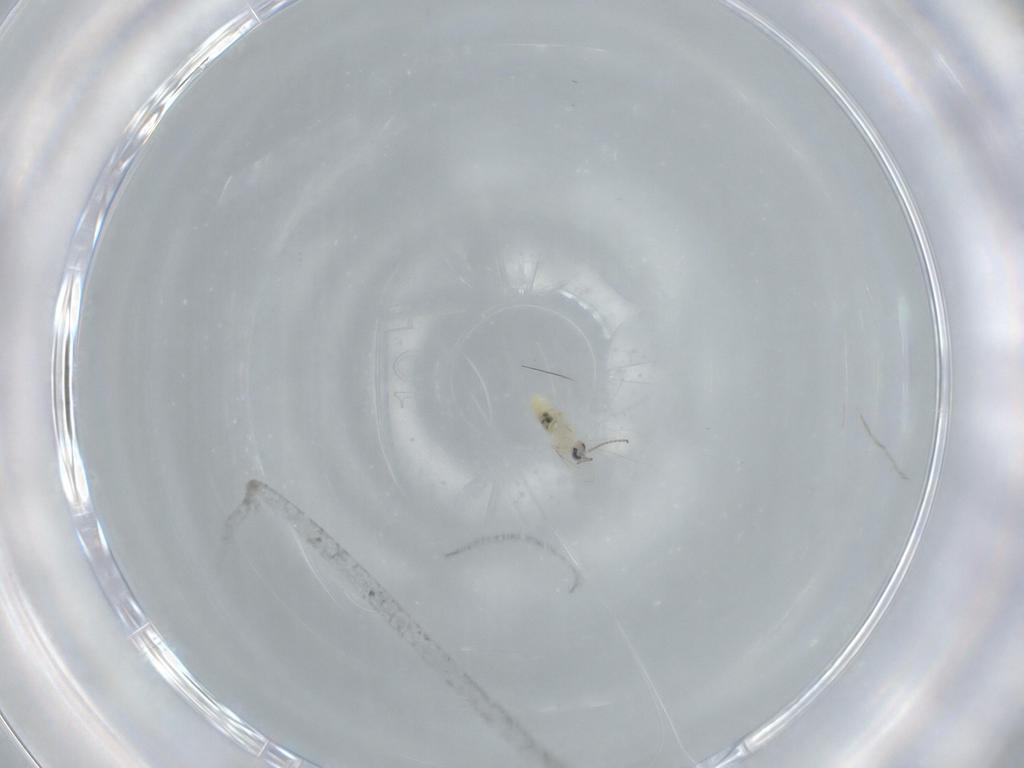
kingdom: Animalia
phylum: Arthropoda
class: Insecta
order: Diptera
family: Cecidomyiidae
